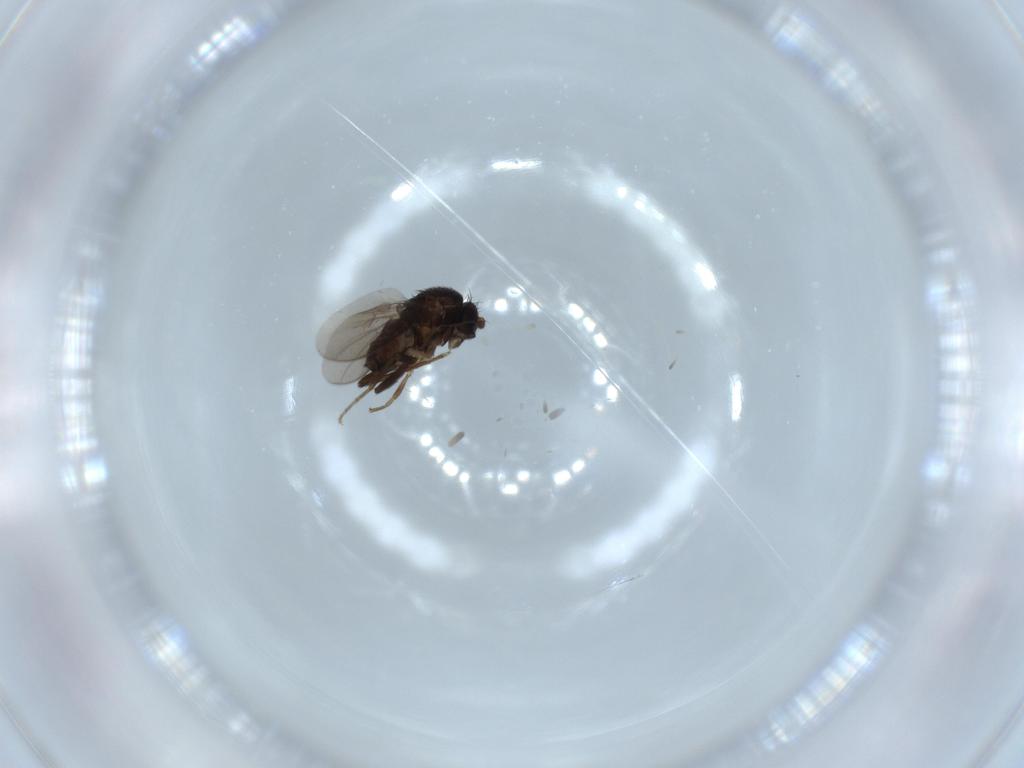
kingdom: Animalia
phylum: Arthropoda
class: Insecta
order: Diptera
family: Sphaeroceridae
